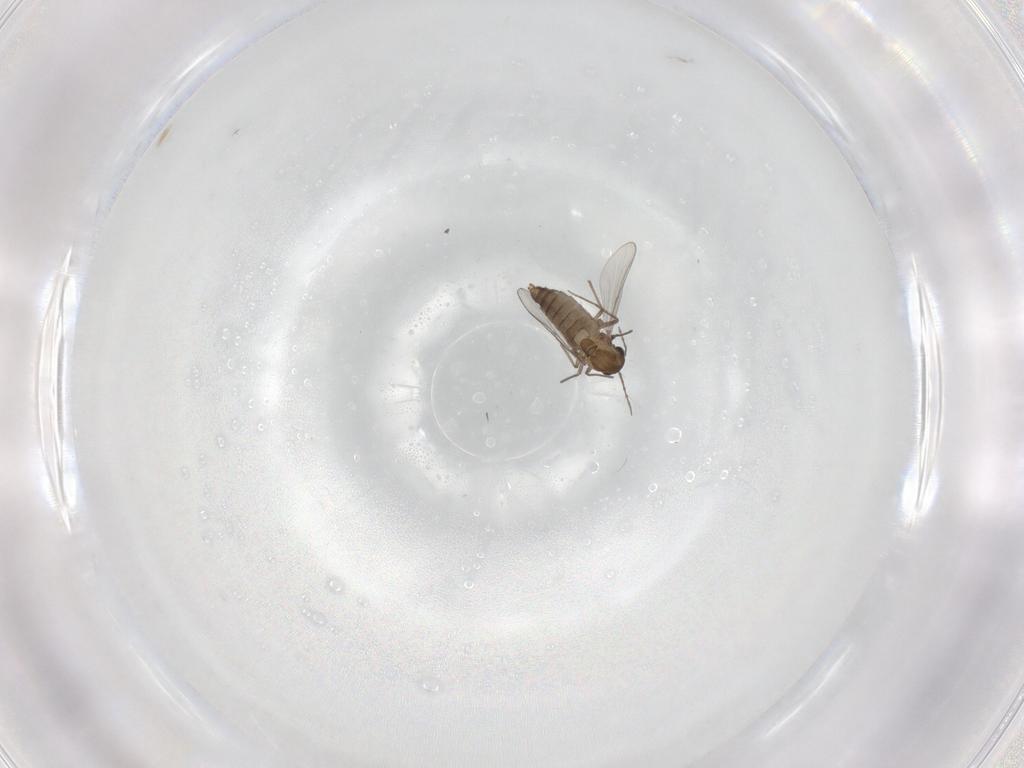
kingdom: Animalia
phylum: Arthropoda
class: Insecta
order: Diptera
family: Chironomidae
